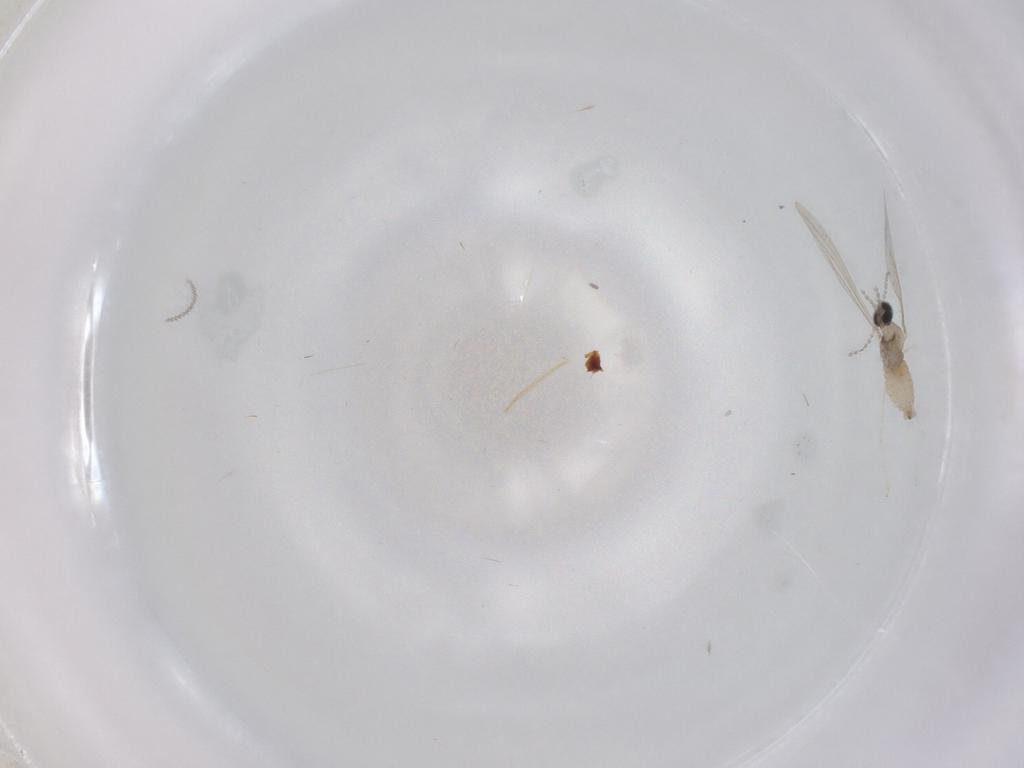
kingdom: Animalia
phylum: Arthropoda
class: Insecta
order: Diptera
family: Cecidomyiidae
